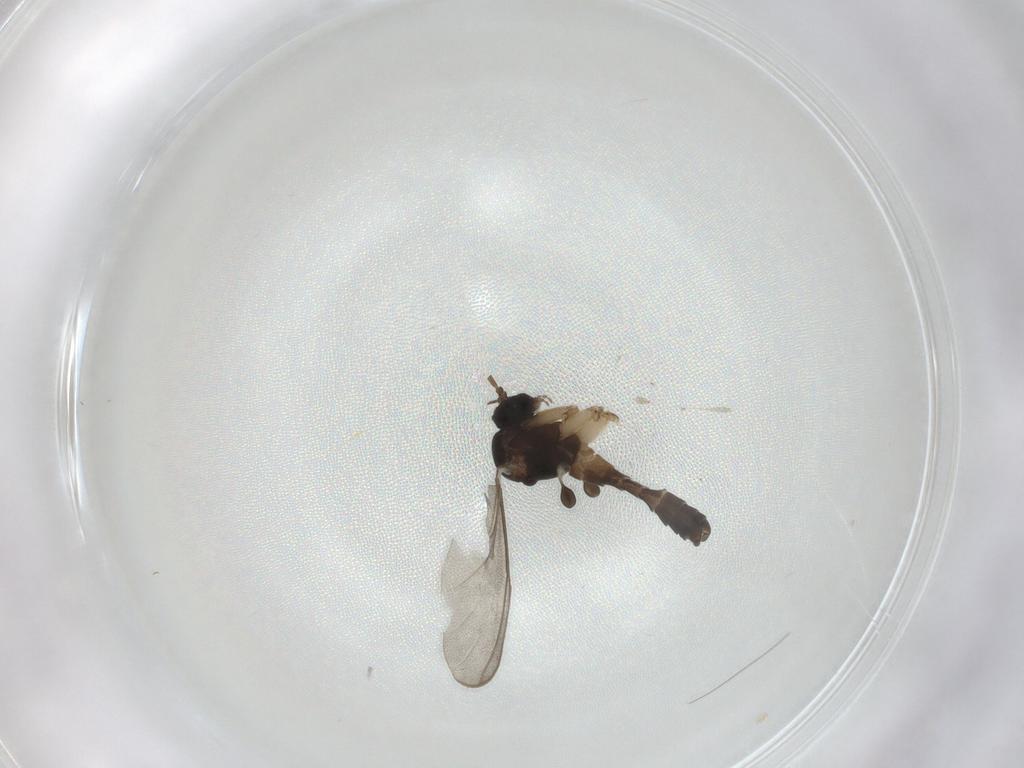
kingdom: Animalia
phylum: Arthropoda
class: Insecta
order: Diptera
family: Mycetophilidae
